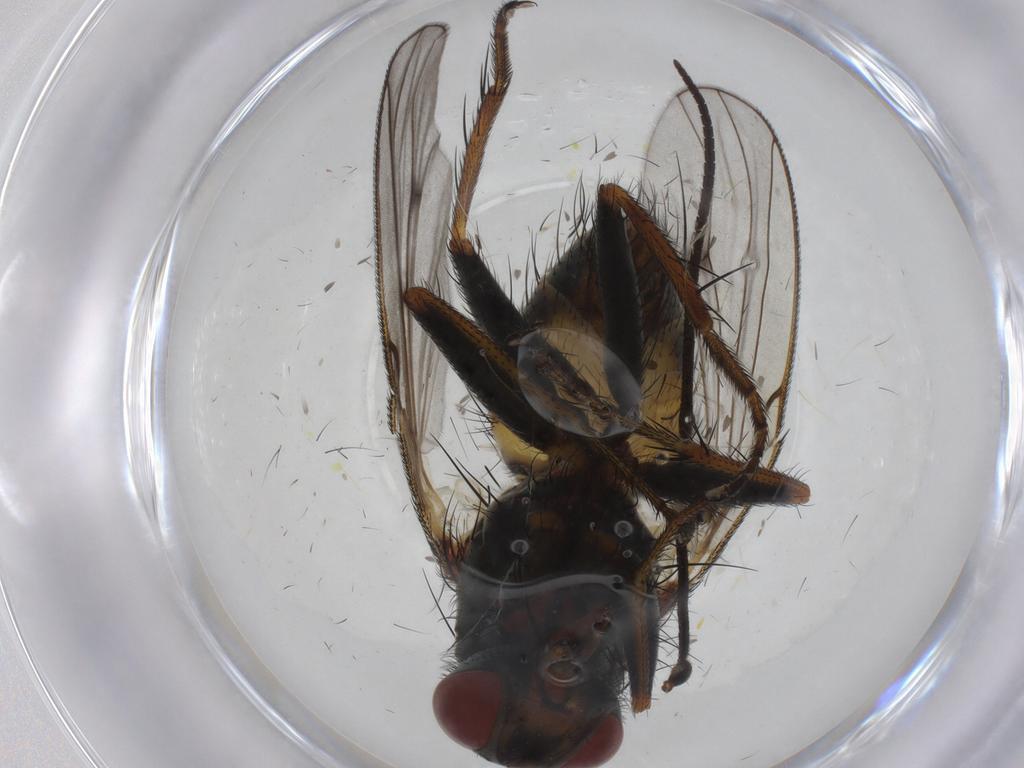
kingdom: Animalia
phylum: Arthropoda
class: Insecta
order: Diptera
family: Muscidae
